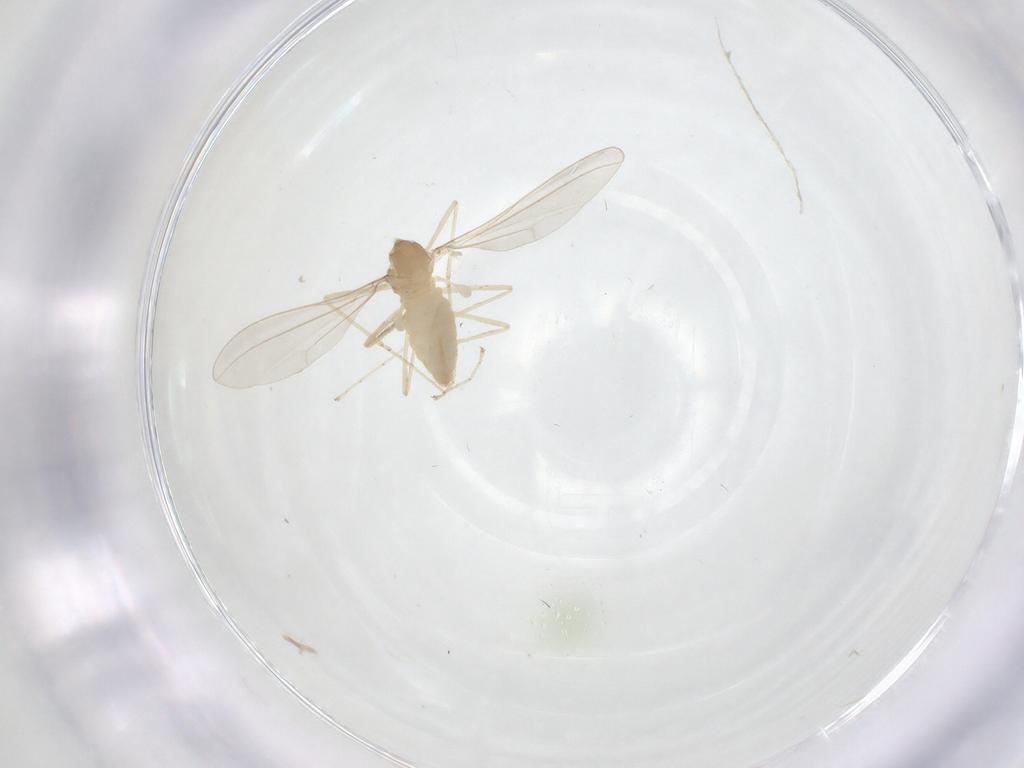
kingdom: Animalia
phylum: Arthropoda
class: Insecta
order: Diptera
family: Cecidomyiidae
